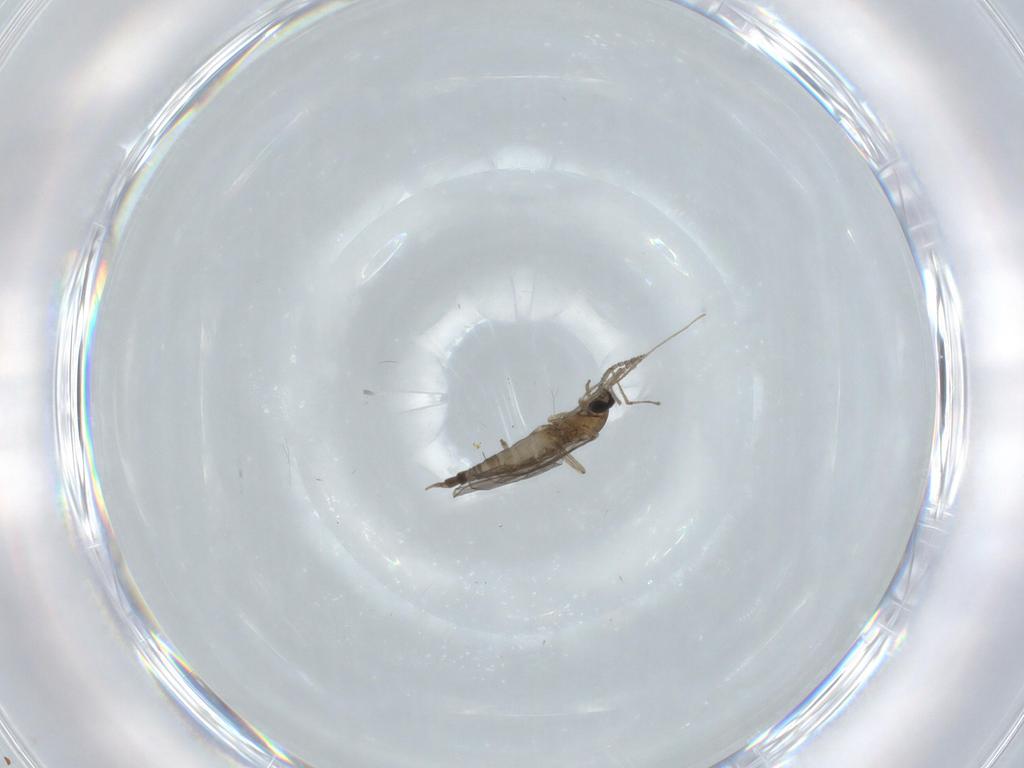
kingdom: Animalia
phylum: Arthropoda
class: Insecta
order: Diptera
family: Cecidomyiidae
